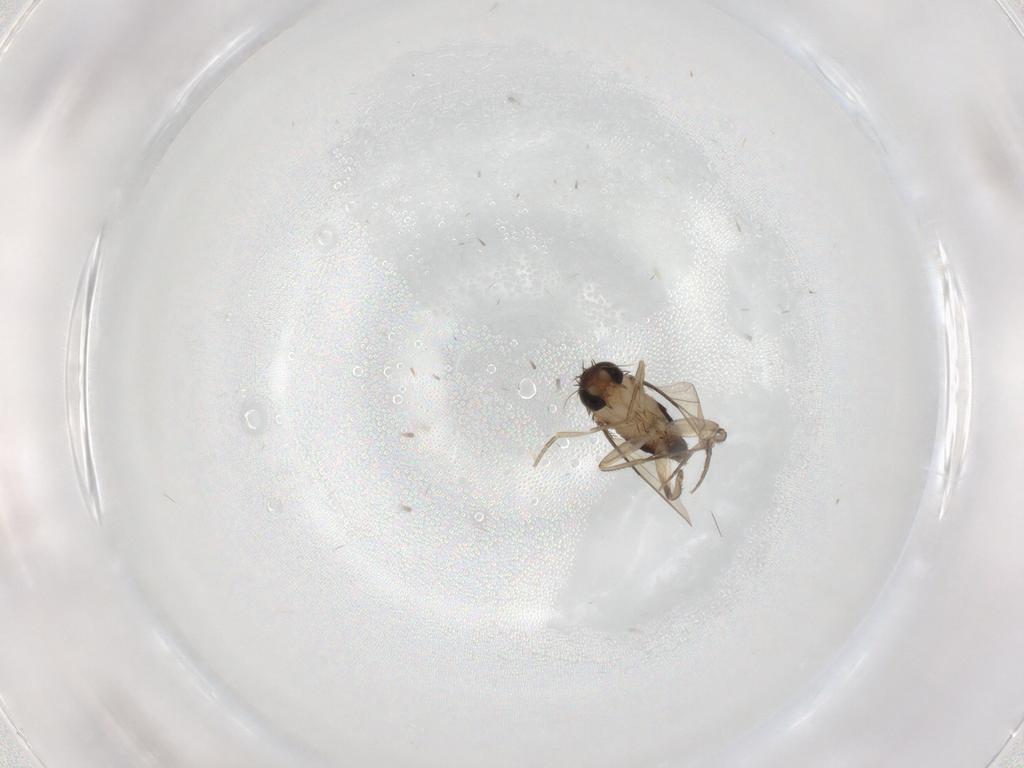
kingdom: Animalia
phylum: Arthropoda
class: Insecta
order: Diptera
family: Phoridae
